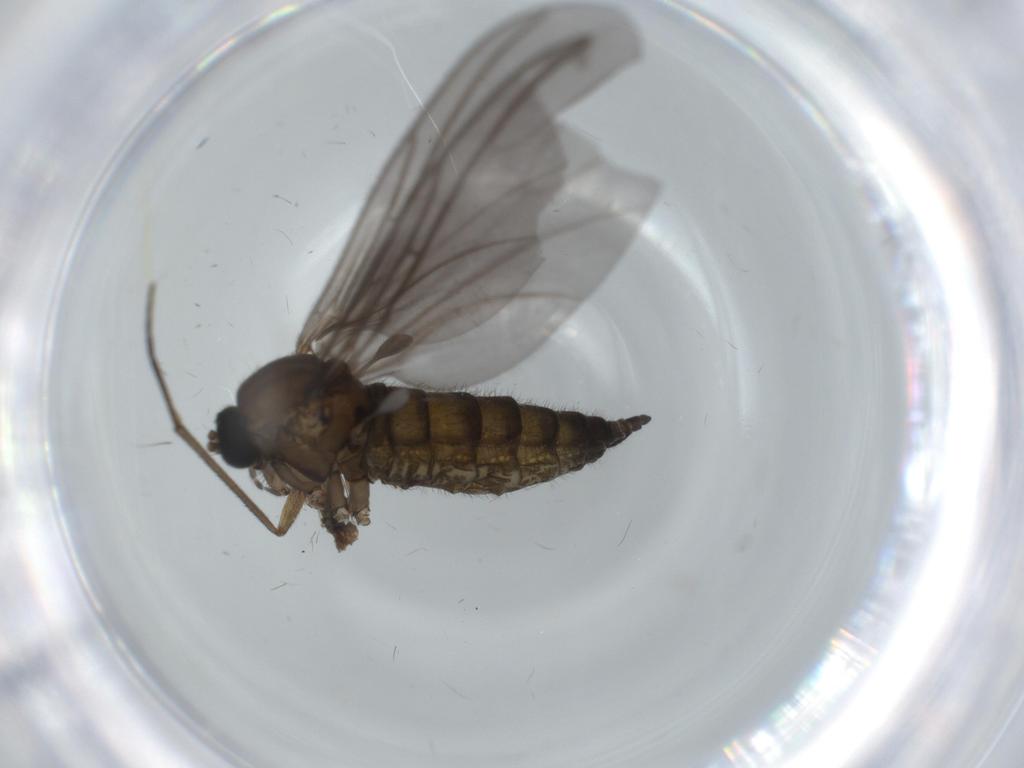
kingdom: Animalia
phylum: Arthropoda
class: Insecta
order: Diptera
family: Sciaridae
